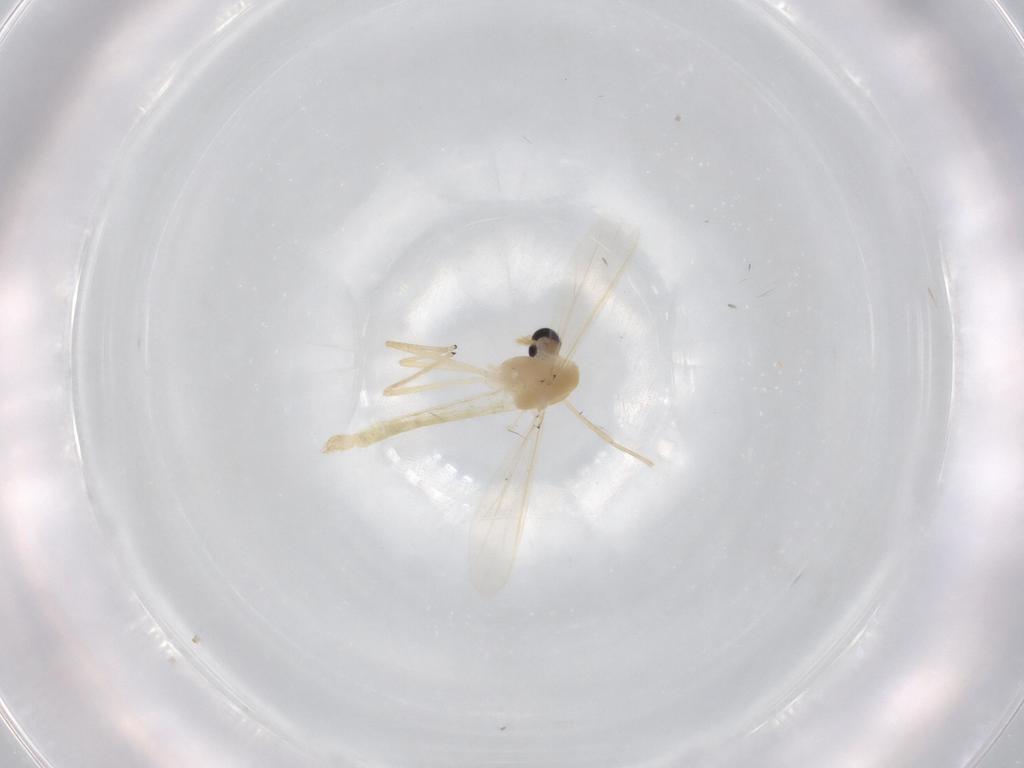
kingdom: Animalia
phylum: Arthropoda
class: Insecta
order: Diptera
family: Chironomidae
